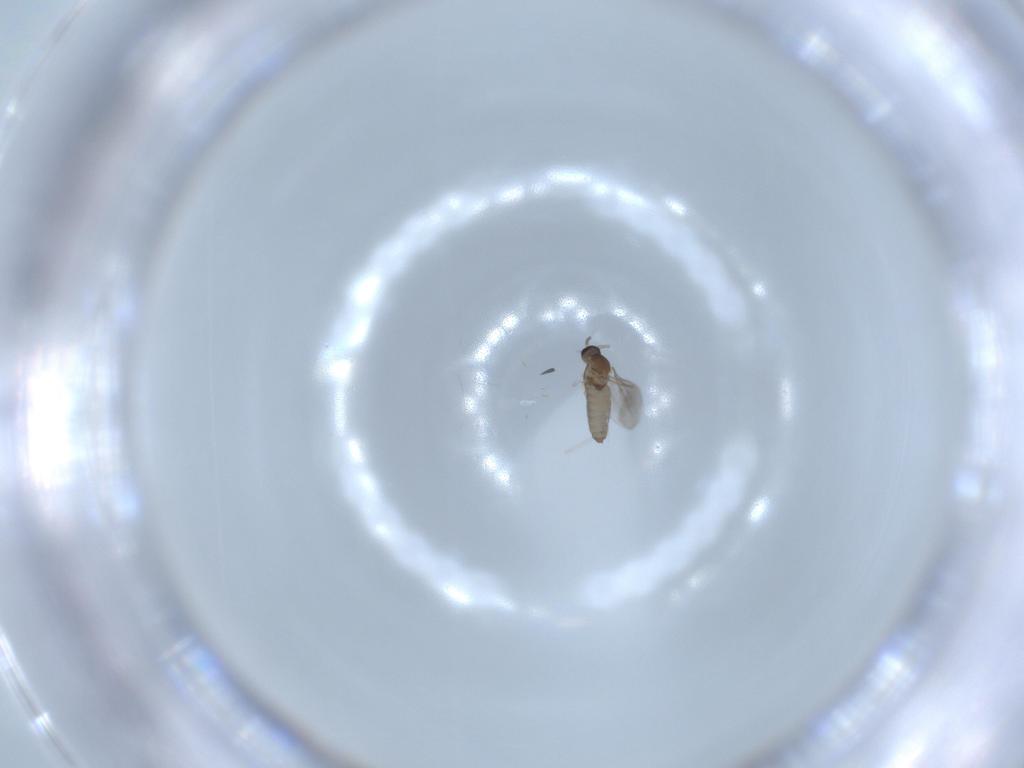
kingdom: Animalia
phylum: Arthropoda
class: Insecta
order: Diptera
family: Cecidomyiidae
